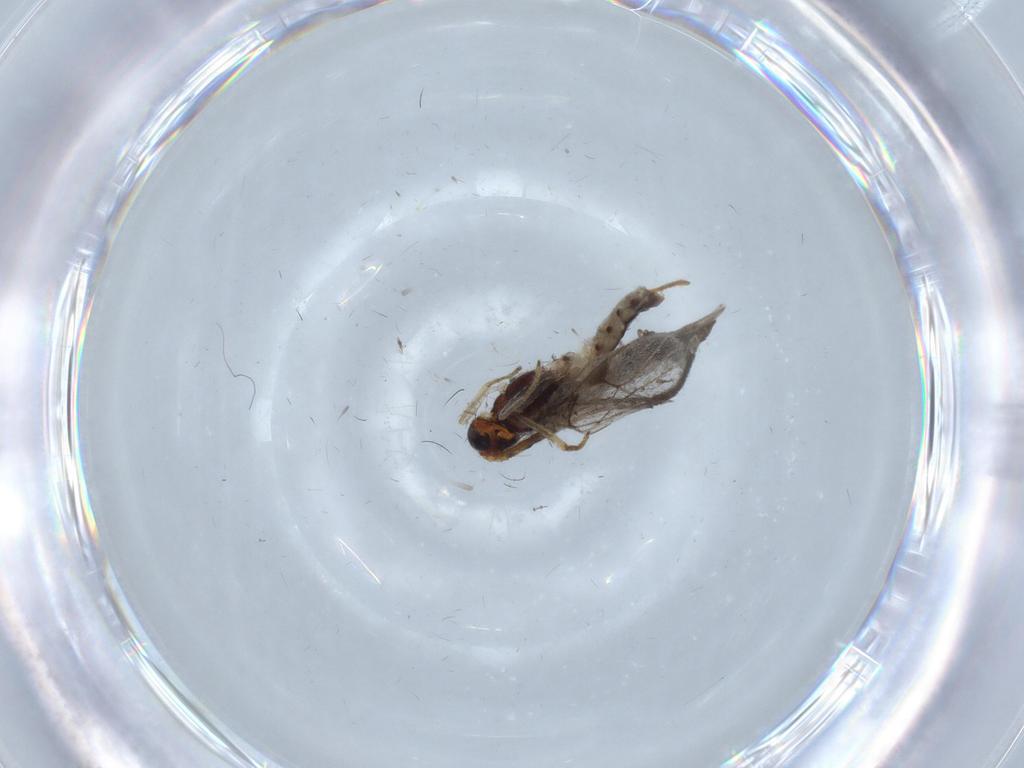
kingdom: Animalia
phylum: Arthropoda
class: Insecta
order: Diptera
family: Chironomidae
